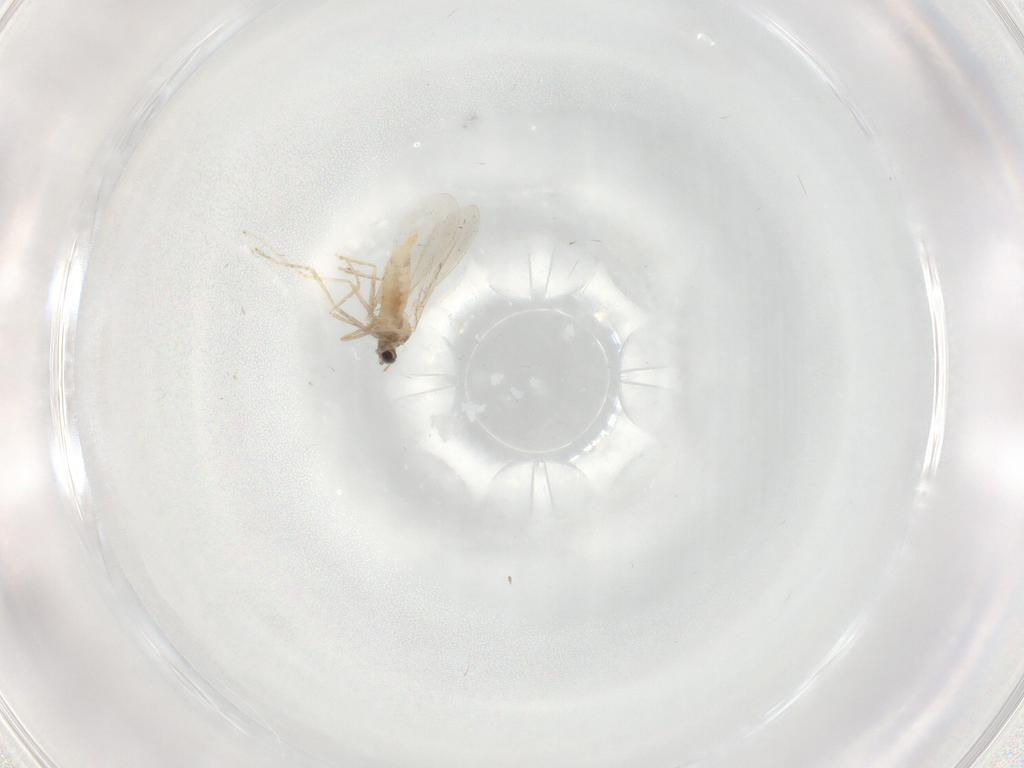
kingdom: Animalia
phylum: Arthropoda
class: Insecta
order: Diptera
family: Cecidomyiidae
